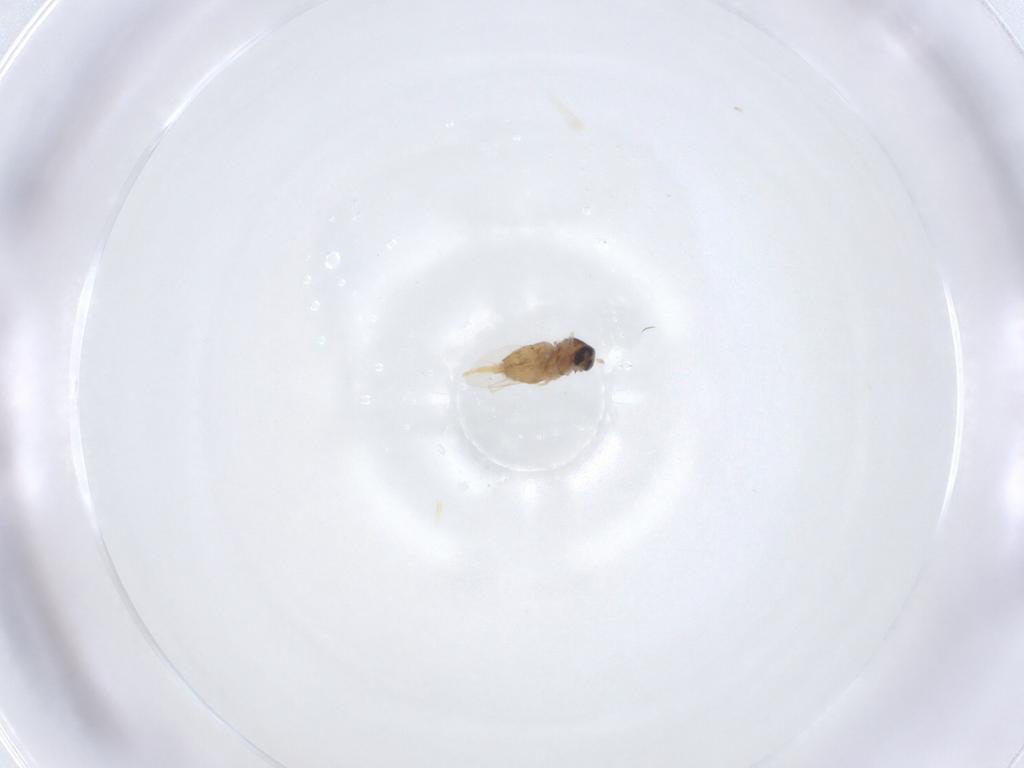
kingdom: Animalia
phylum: Arthropoda
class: Insecta
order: Diptera
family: Cecidomyiidae
